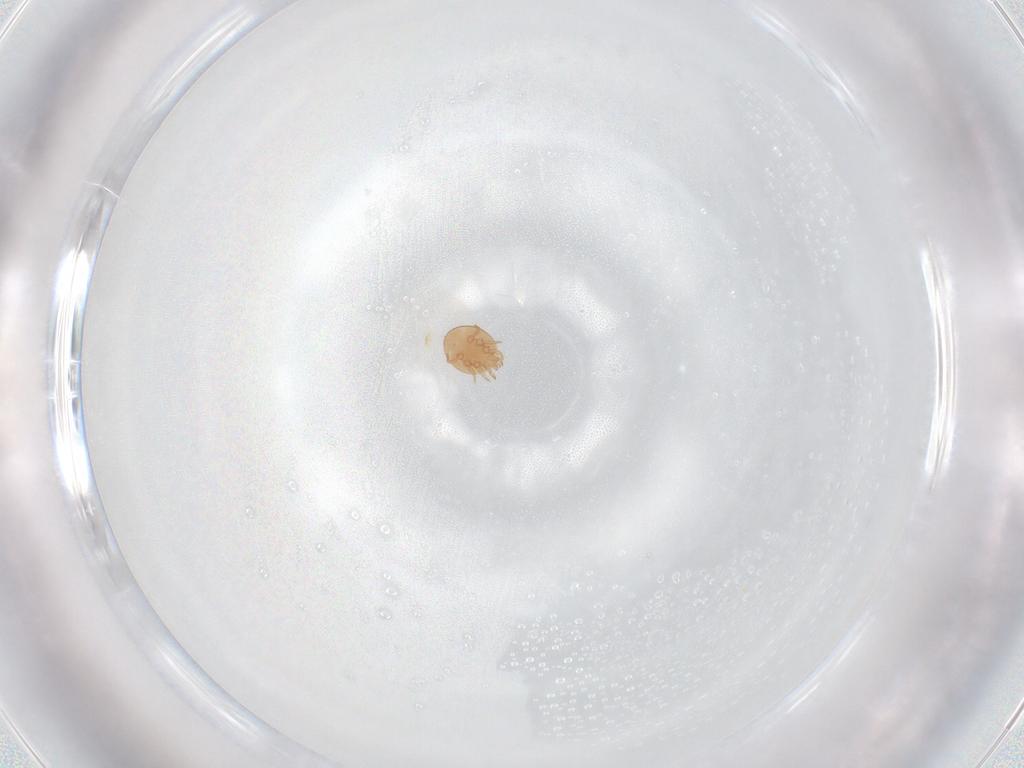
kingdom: Animalia
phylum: Arthropoda
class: Arachnida
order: Mesostigmata
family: Trematuridae
